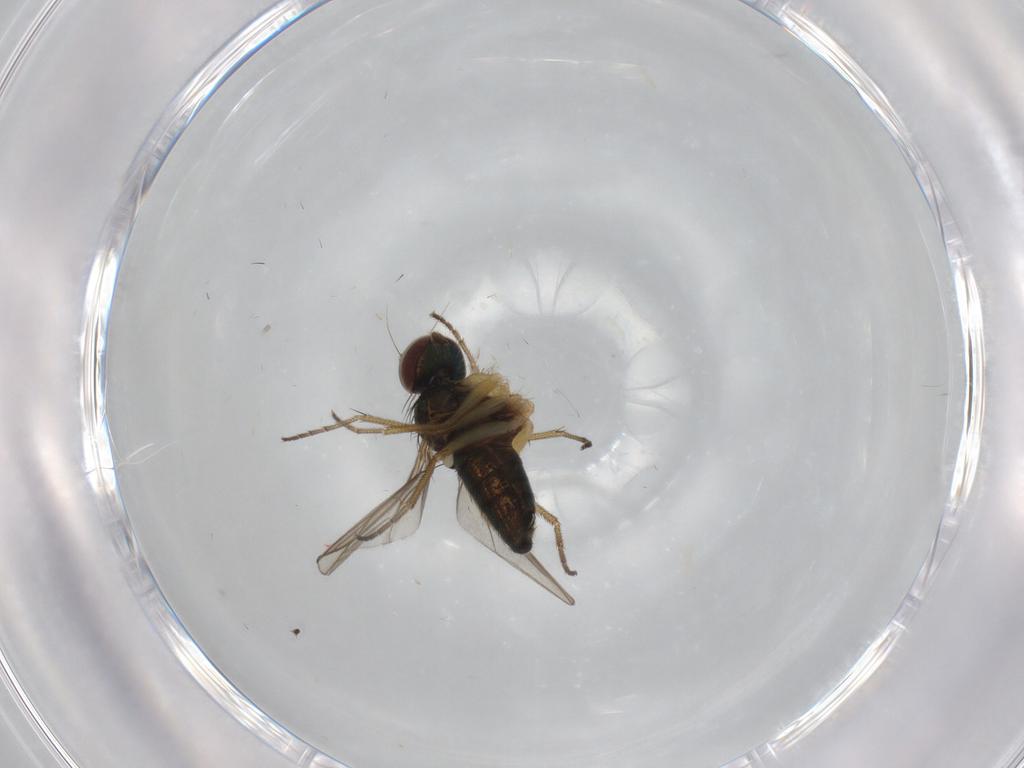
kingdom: Animalia
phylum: Arthropoda
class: Insecta
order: Diptera
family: Dolichopodidae
